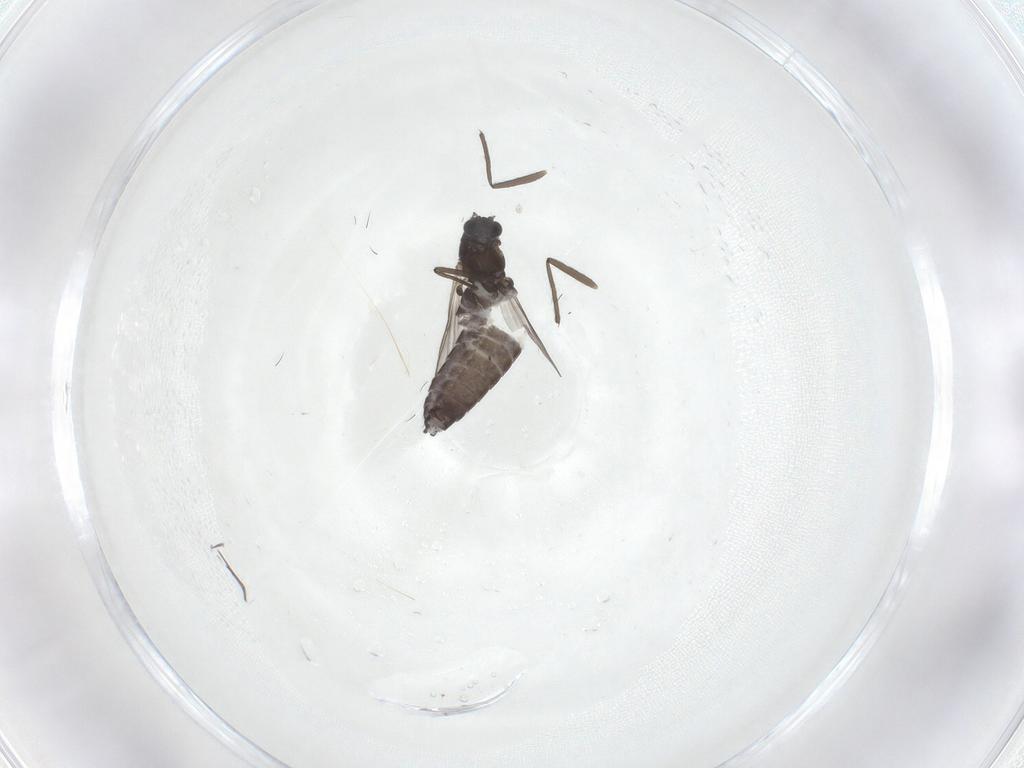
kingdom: Animalia
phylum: Arthropoda
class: Insecta
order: Diptera
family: Chironomidae
